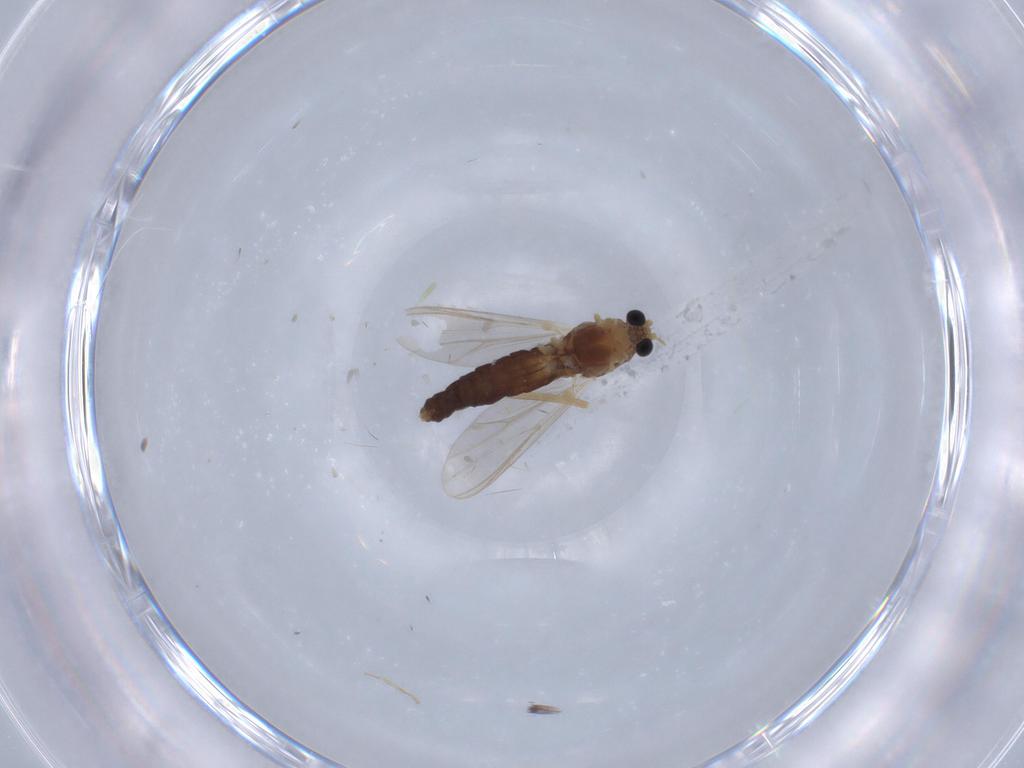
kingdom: Animalia
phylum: Arthropoda
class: Insecta
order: Diptera
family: Chironomidae
